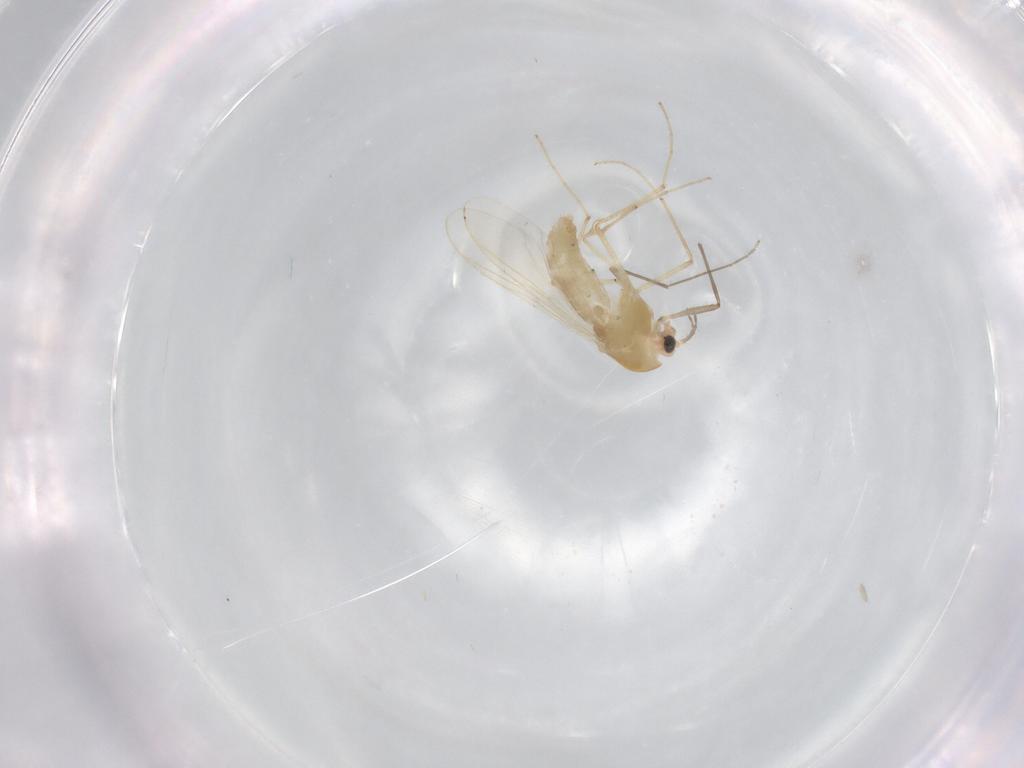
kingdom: Animalia
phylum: Arthropoda
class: Insecta
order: Diptera
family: Chironomidae
